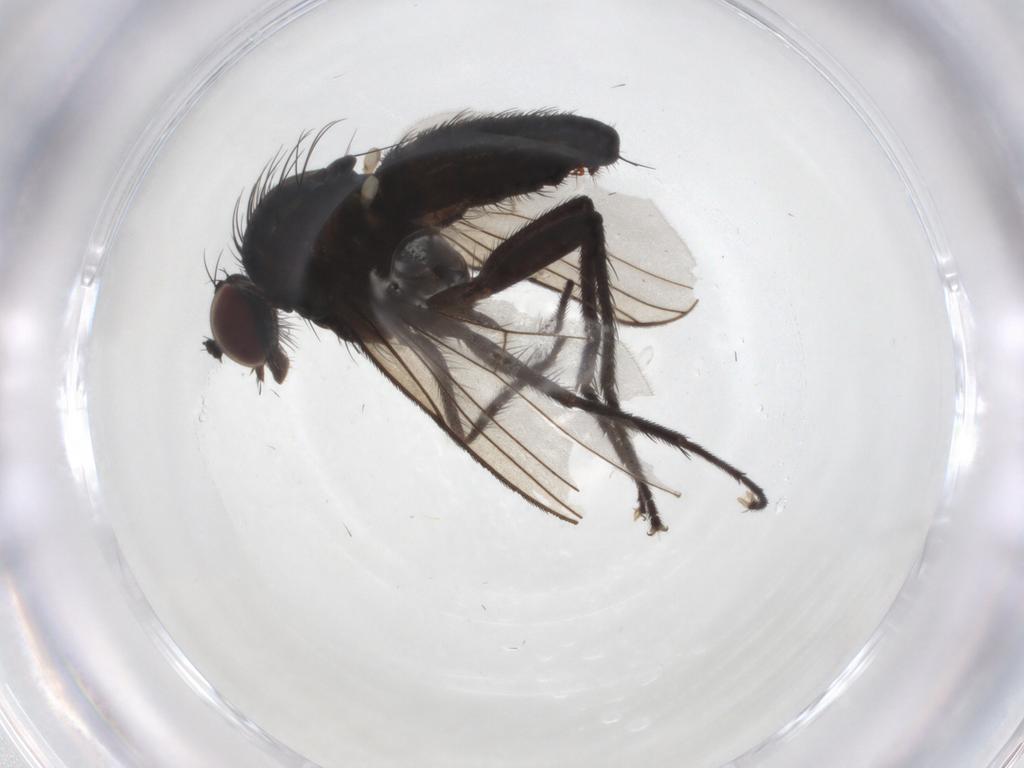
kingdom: Animalia
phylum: Arthropoda
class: Insecta
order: Diptera
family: Dolichopodidae
